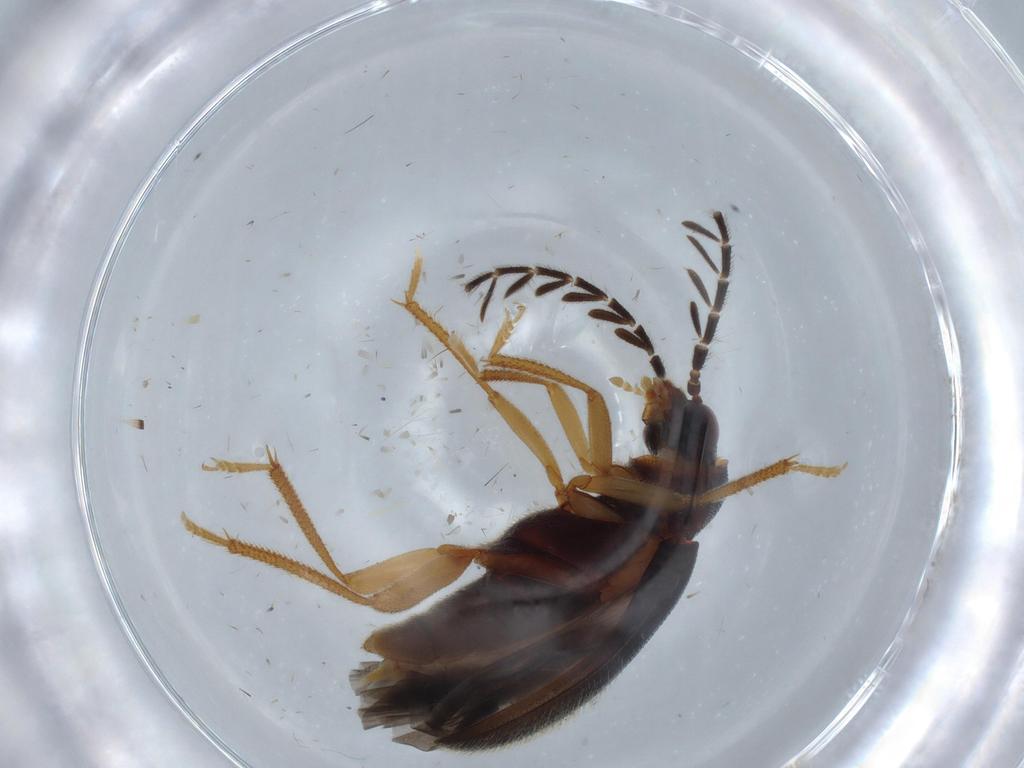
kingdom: Animalia
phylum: Arthropoda
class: Insecta
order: Coleoptera
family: Ptilodactylidae
